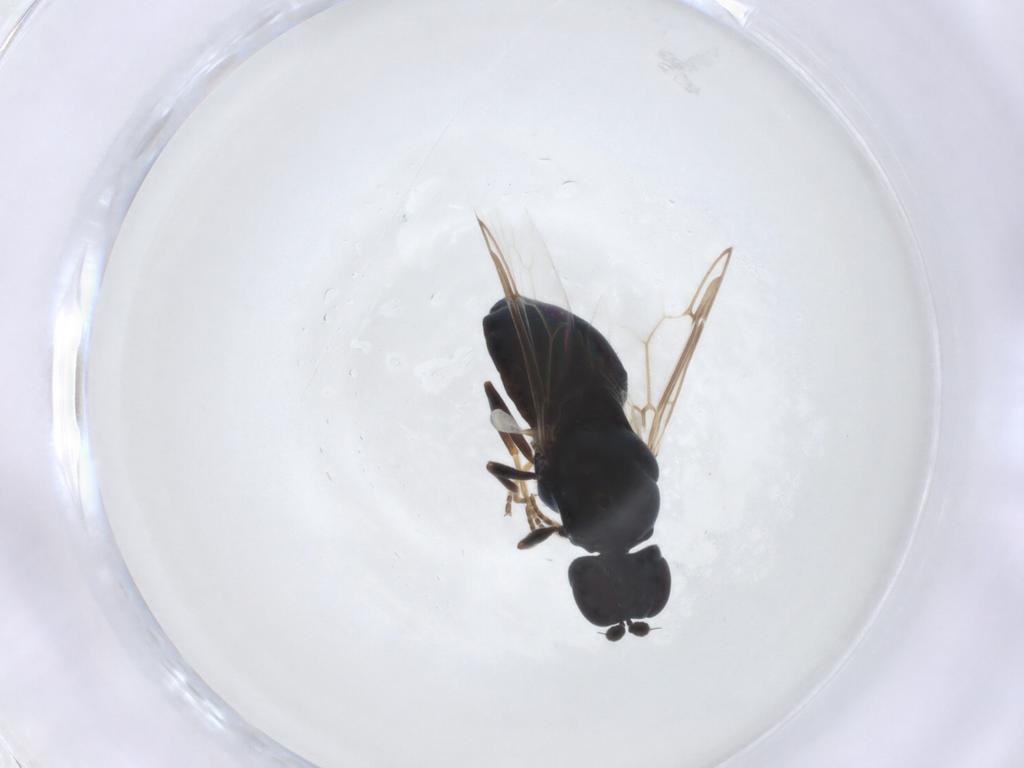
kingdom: Animalia
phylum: Arthropoda
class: Insecta
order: Diptera
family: Stratiomyidae
